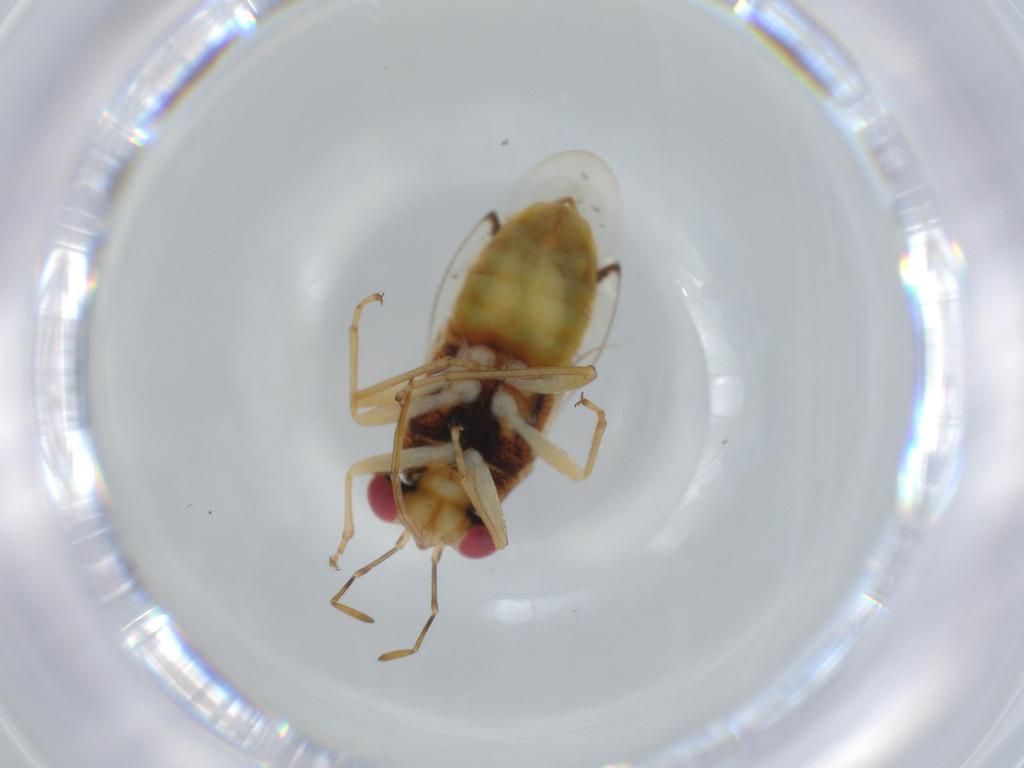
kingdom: Animalia
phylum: Arthropoda
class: Insecta
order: Hemiptera
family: Geocoridae
